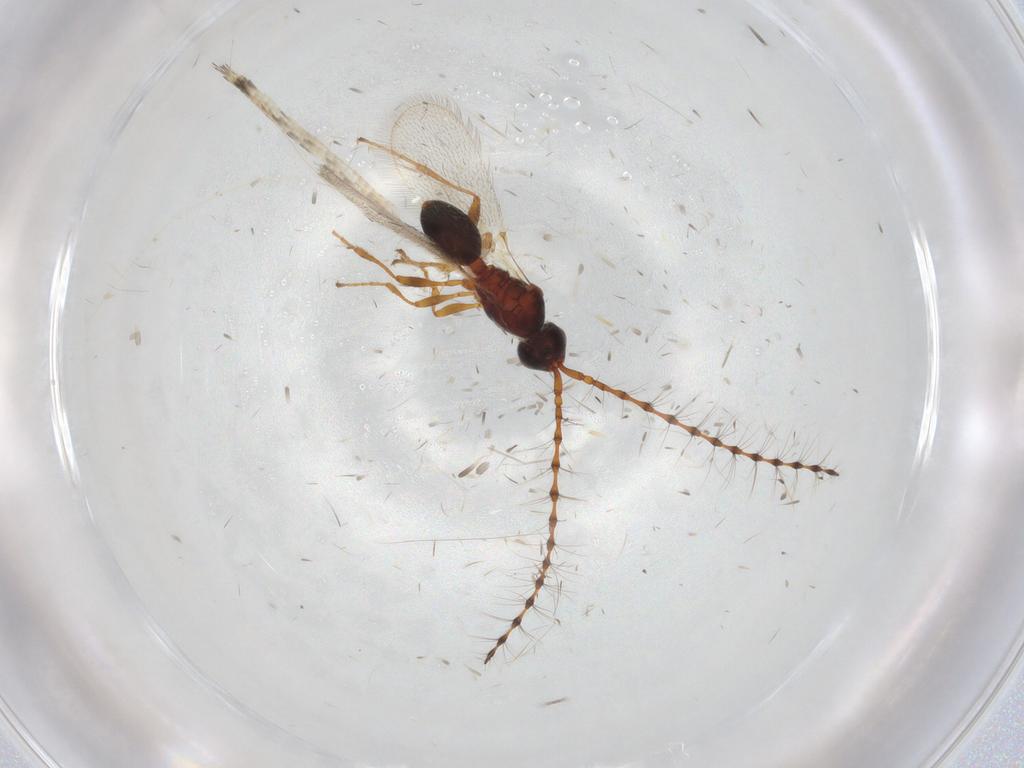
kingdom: Animalia
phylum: Arthropoda
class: Insecta
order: Hymenoptera
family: Diapriidae
